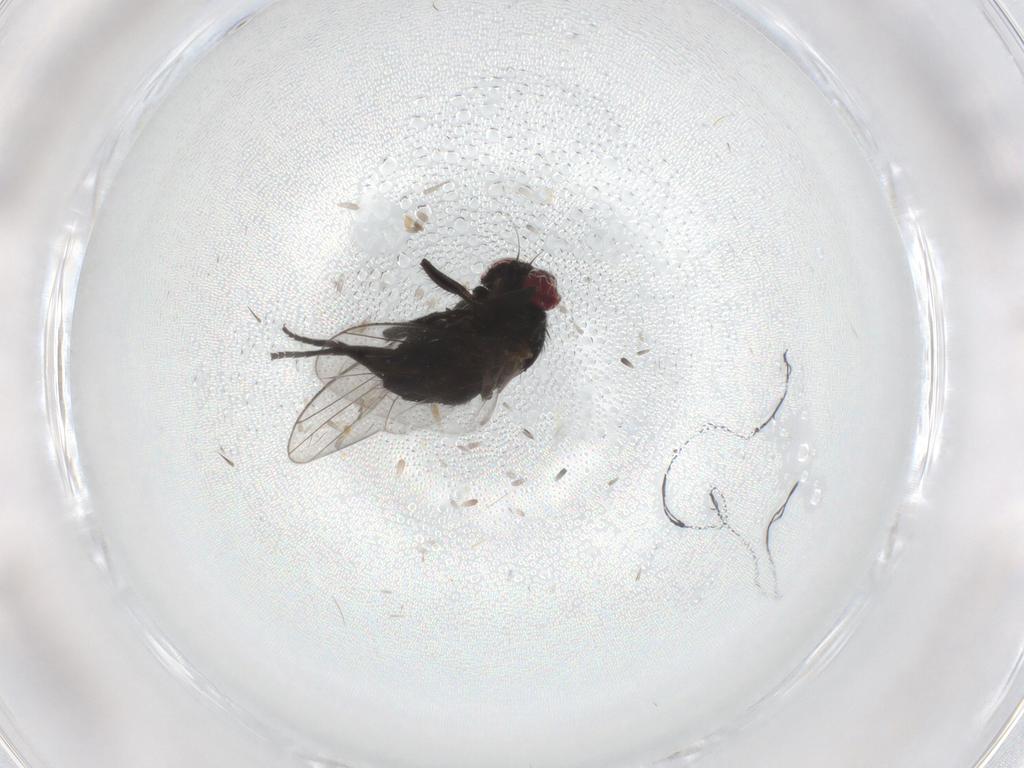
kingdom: Animalia
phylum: Arthropoda
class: Insecta
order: Diptera
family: Agromyzidae
